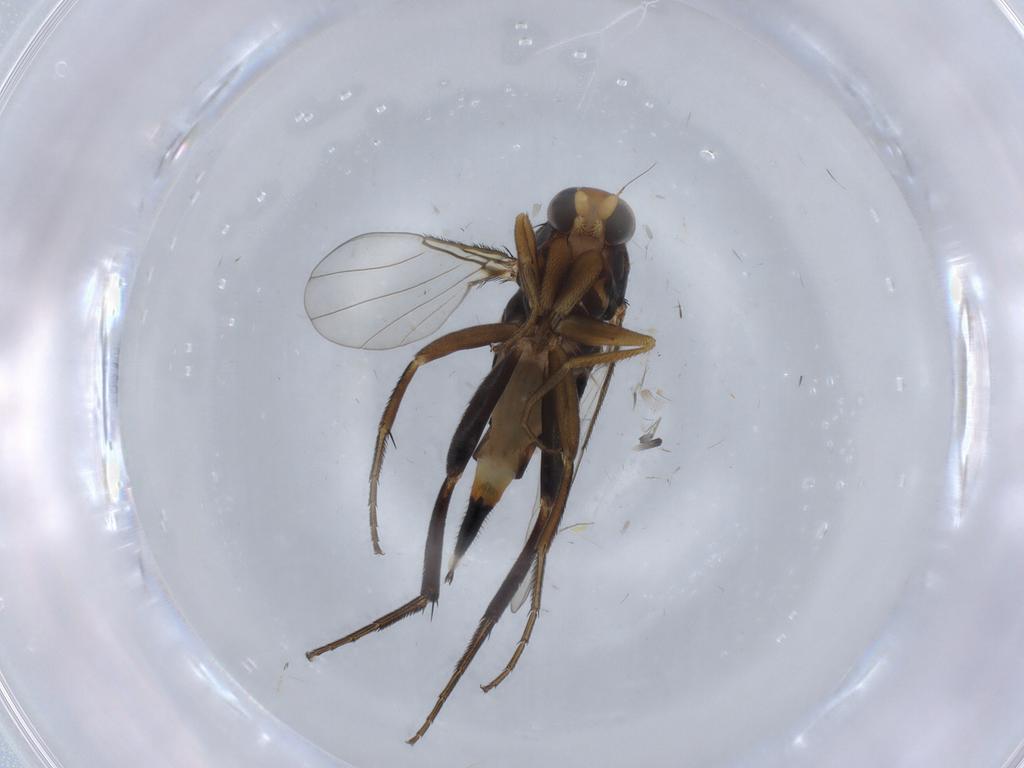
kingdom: Animalia
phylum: Arthropoda
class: Insecta
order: Diptera
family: Phoridae
